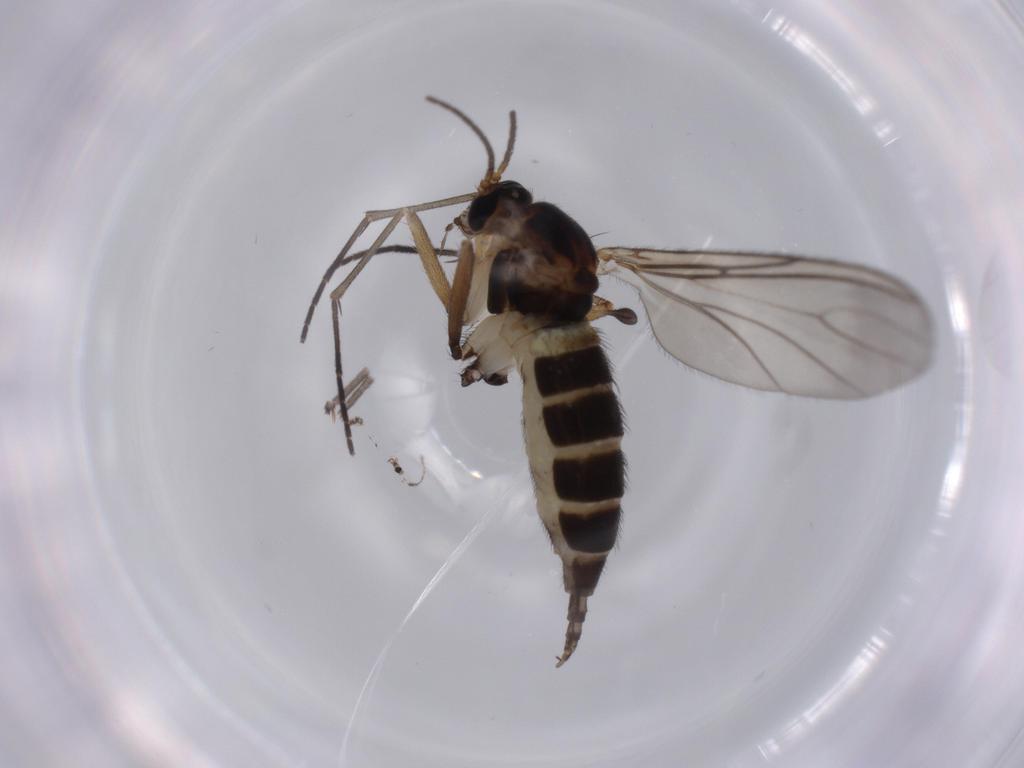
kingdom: Animalia
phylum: Arthropoda
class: Insecta
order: Diptera
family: Sciaridae
